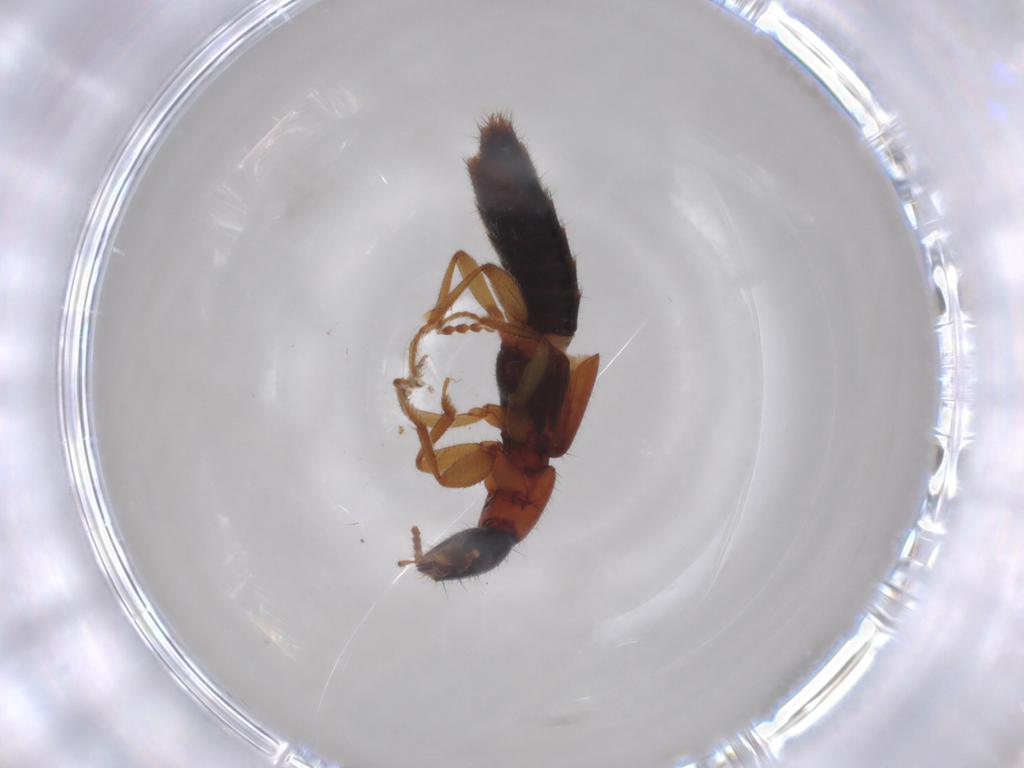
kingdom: Animalia
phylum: Arthropoda
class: Insecta
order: Coleoptera
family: Staphylinidae
